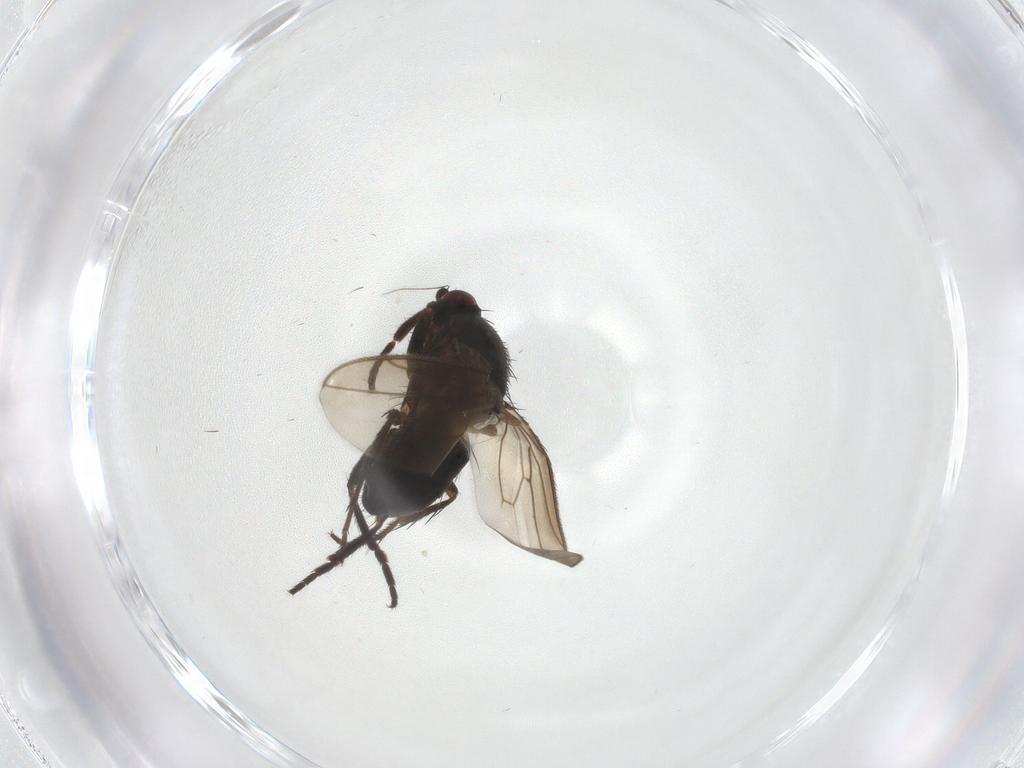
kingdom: Animalia
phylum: Arthropoda
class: Insecta
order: Diptera
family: Sphaeroceridae
